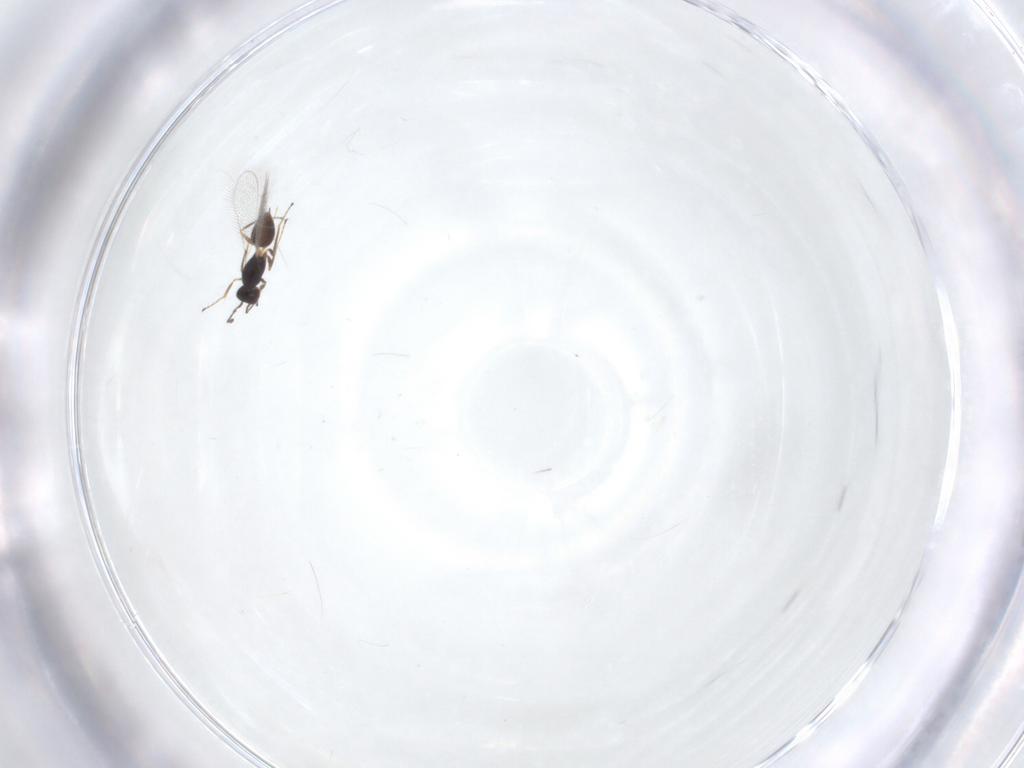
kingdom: Animalia
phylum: Arthropoda
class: Insecta
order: Hymenoptera
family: Mymaridae
